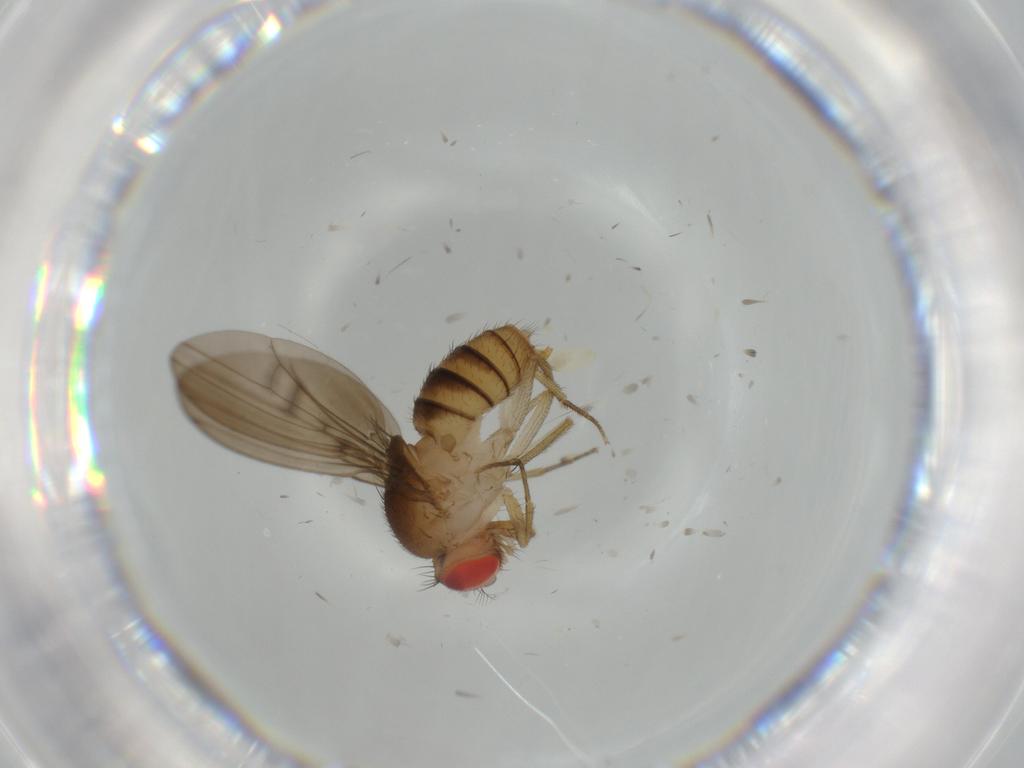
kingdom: Animalia
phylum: Arthropoda
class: Insecta
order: Diptera
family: Drosophilidae
